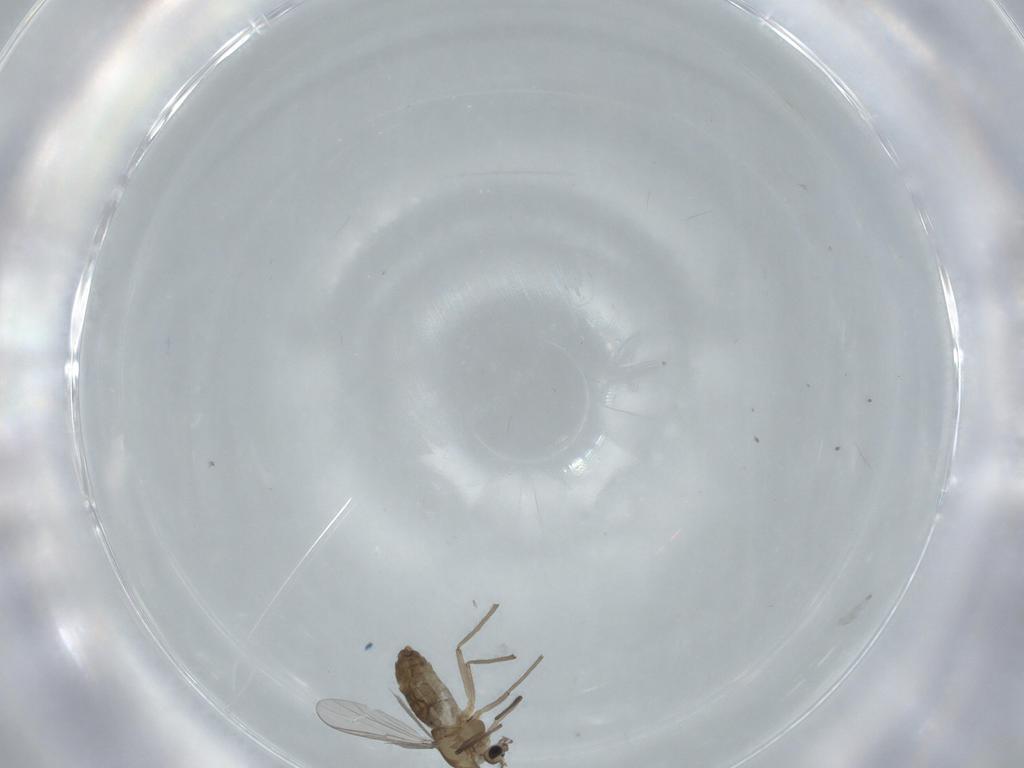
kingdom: Animalia
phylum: Arthropoda
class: Insecta
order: Diptera
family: Chironomidae
